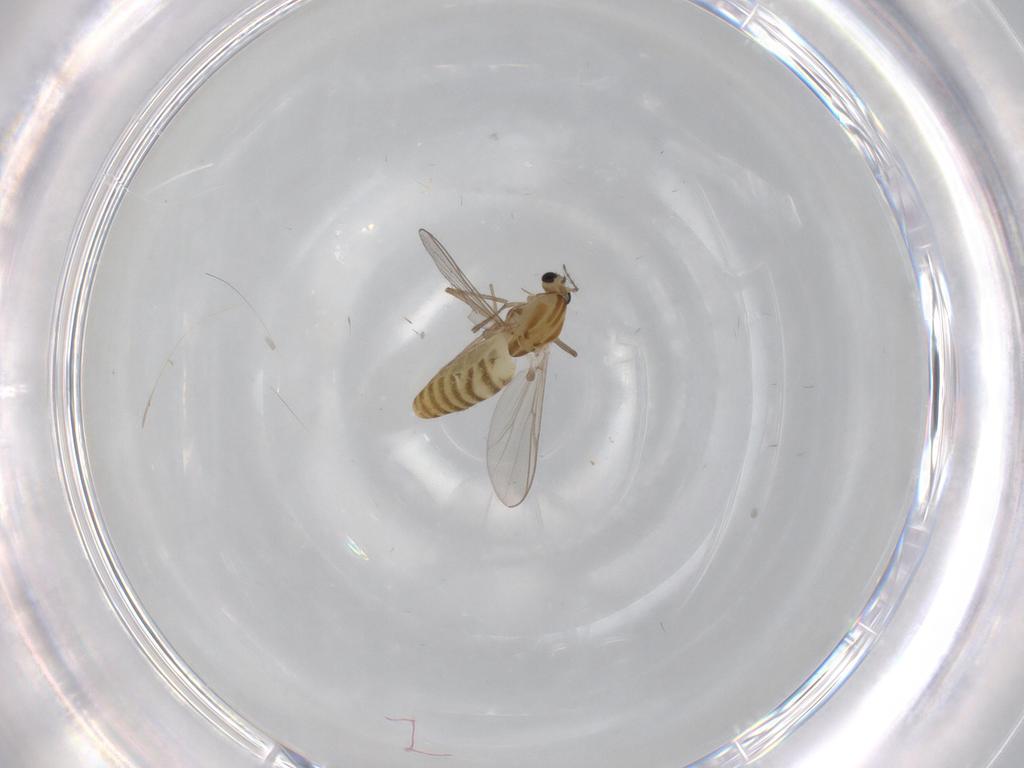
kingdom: Animalia
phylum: Arthropoda
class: Insecta
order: Diptera
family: Chironomidae
